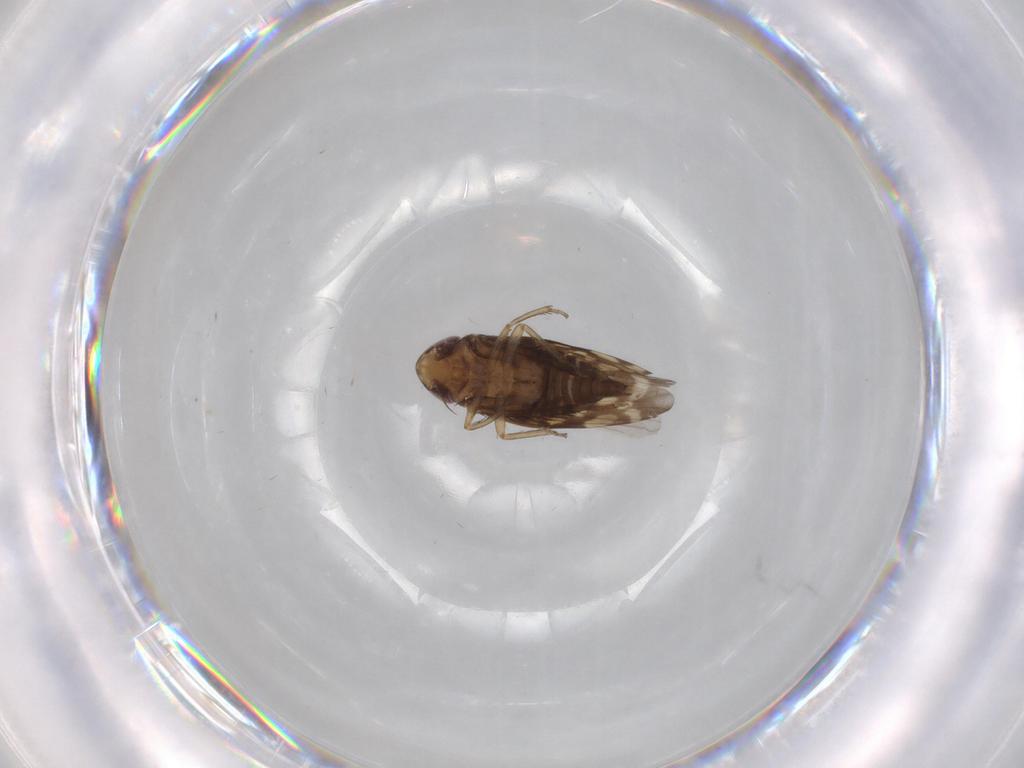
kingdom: Animalia
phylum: Arthropoda
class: Insecta
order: Hemiptera
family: Cicadellidae
